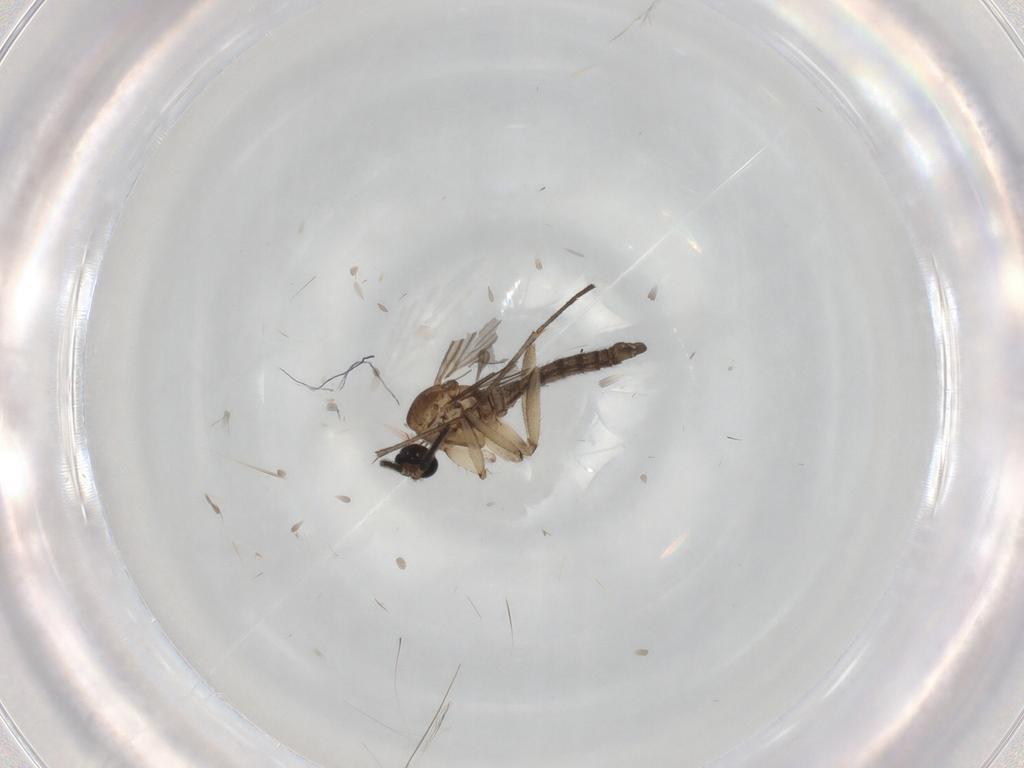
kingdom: Animalia
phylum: Arthropoda
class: Insecta
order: Diptera
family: Sciaridae
